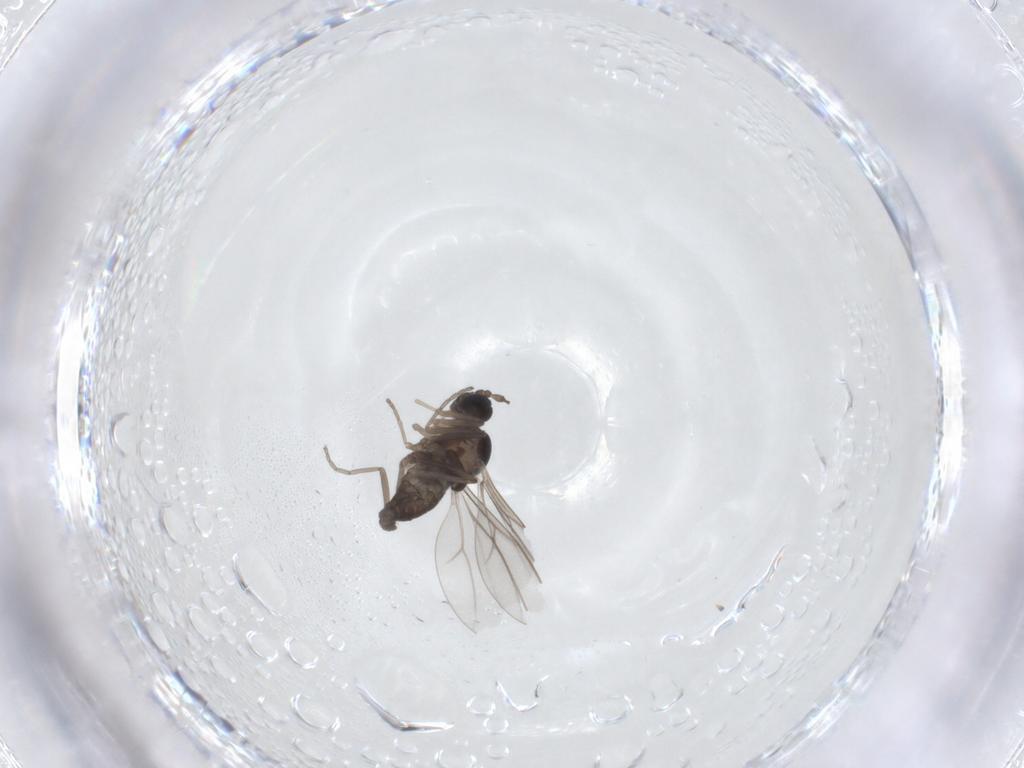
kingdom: Animalia
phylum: Arthropoda
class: Insecta
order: Diptera
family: Cecidomyiidae
